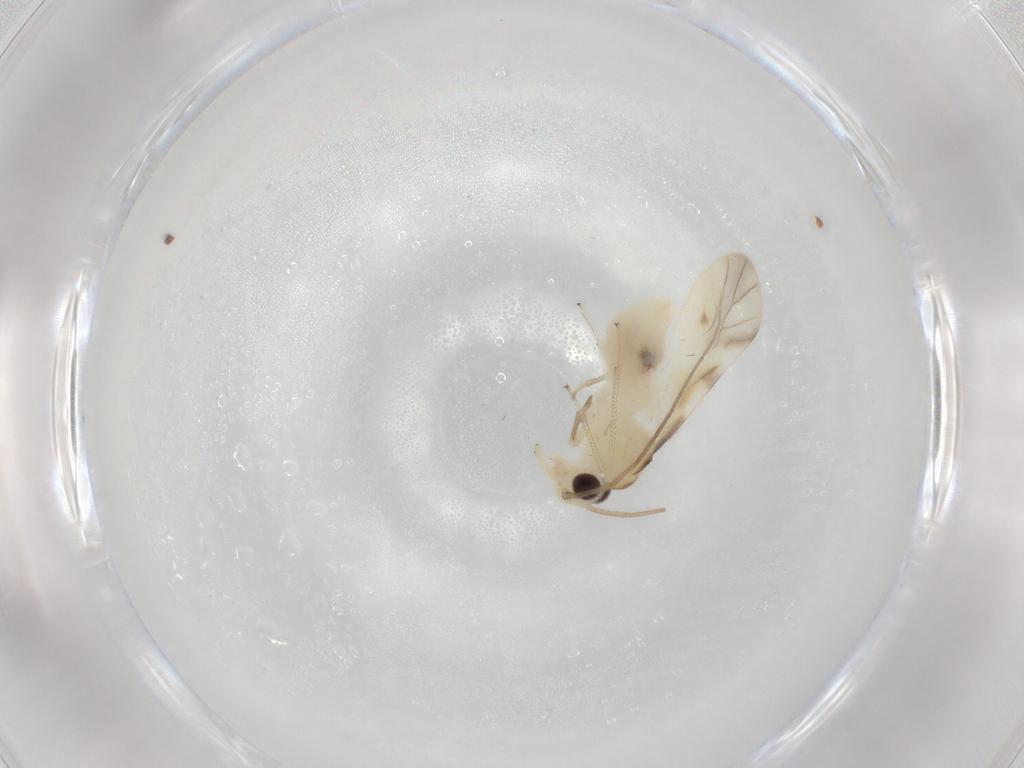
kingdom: Animalia
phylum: Arthropoda
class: Insecta
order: Psocodea
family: Caeciliusidae
